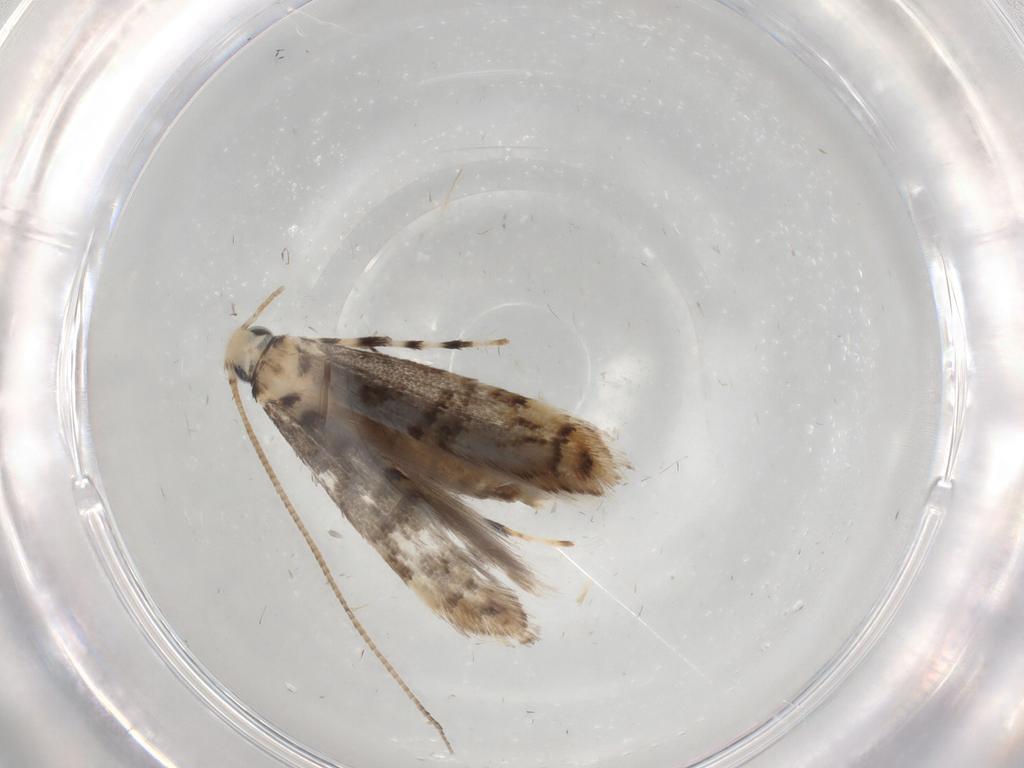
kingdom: Animalia
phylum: Arthropoda
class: Insecta
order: Lepidoptera
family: Gracillariidae
